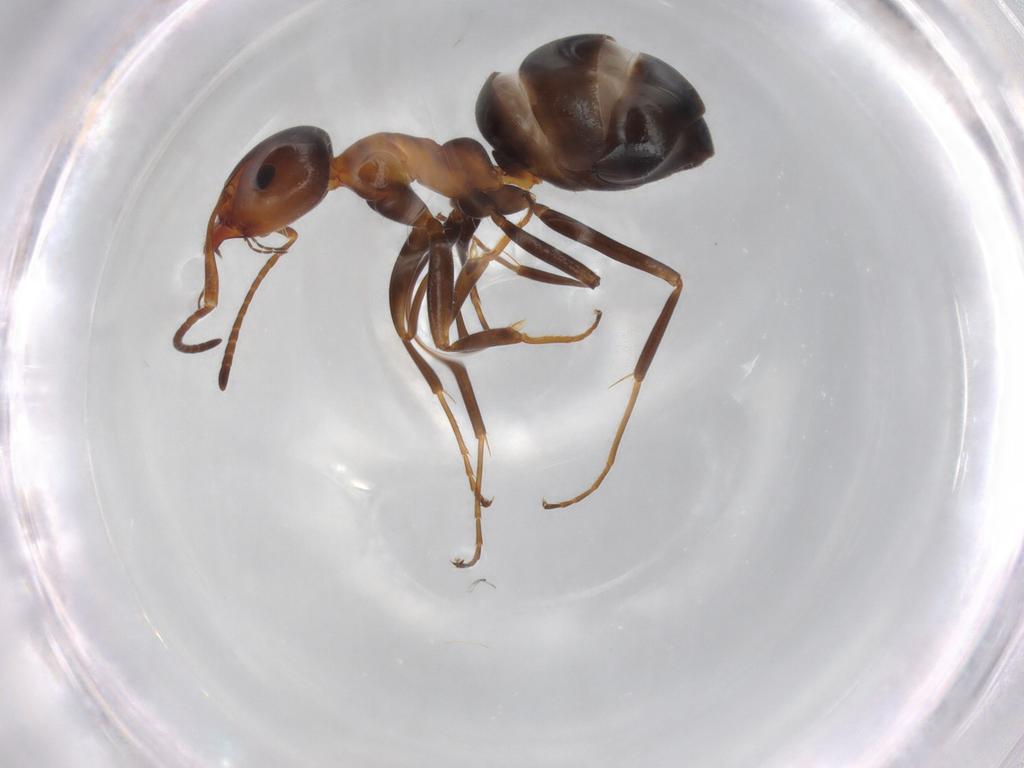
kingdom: Animalia
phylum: Arthropoda
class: Insecta
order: Hymenoptera
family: Formicidae
